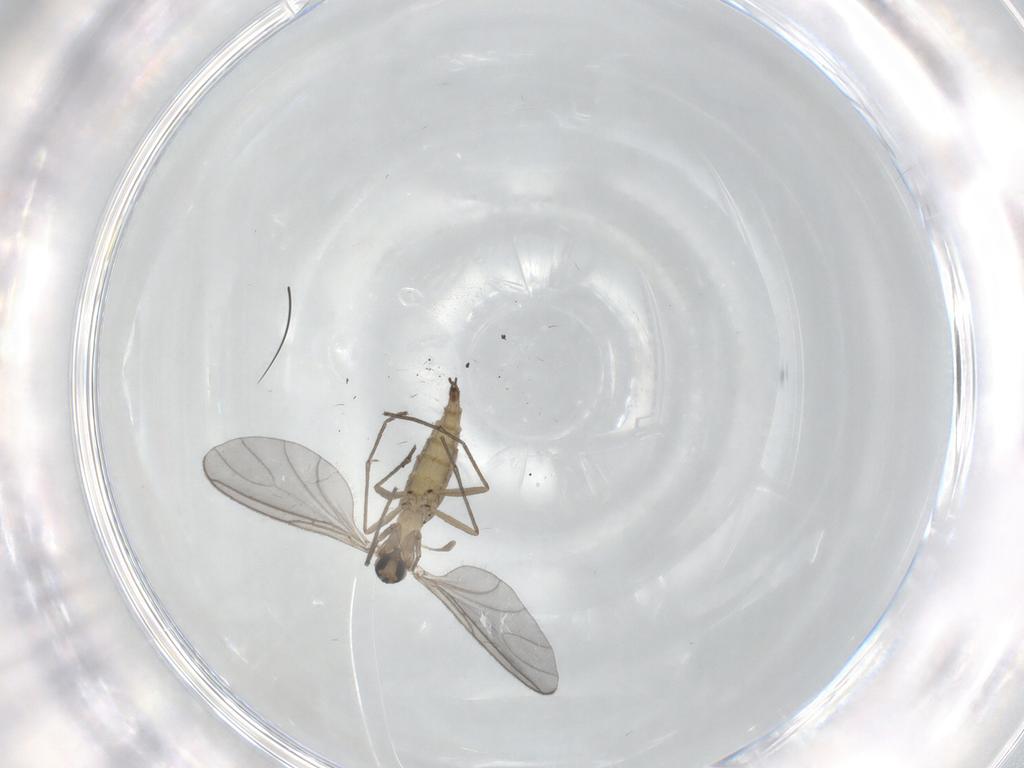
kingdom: Animalia
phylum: Arthropoda
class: Insecta
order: Diptera
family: Sciaridae
